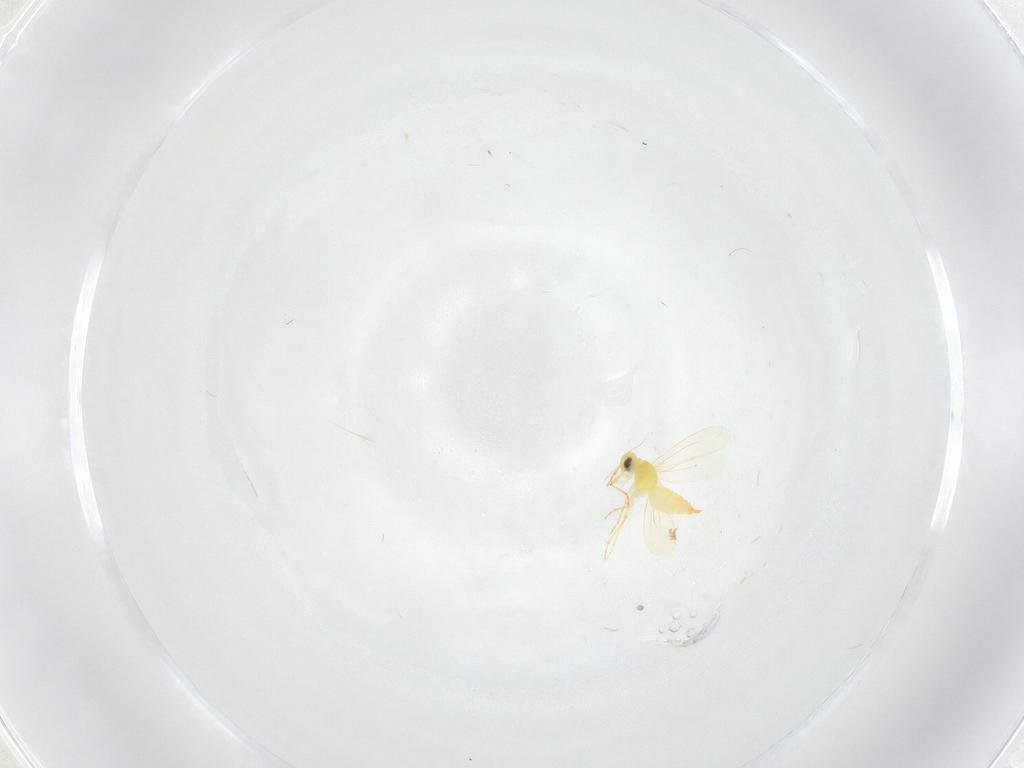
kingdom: Animalia
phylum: Arthropoda
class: Insecta
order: Hemiptera
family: Aleyrodidae
